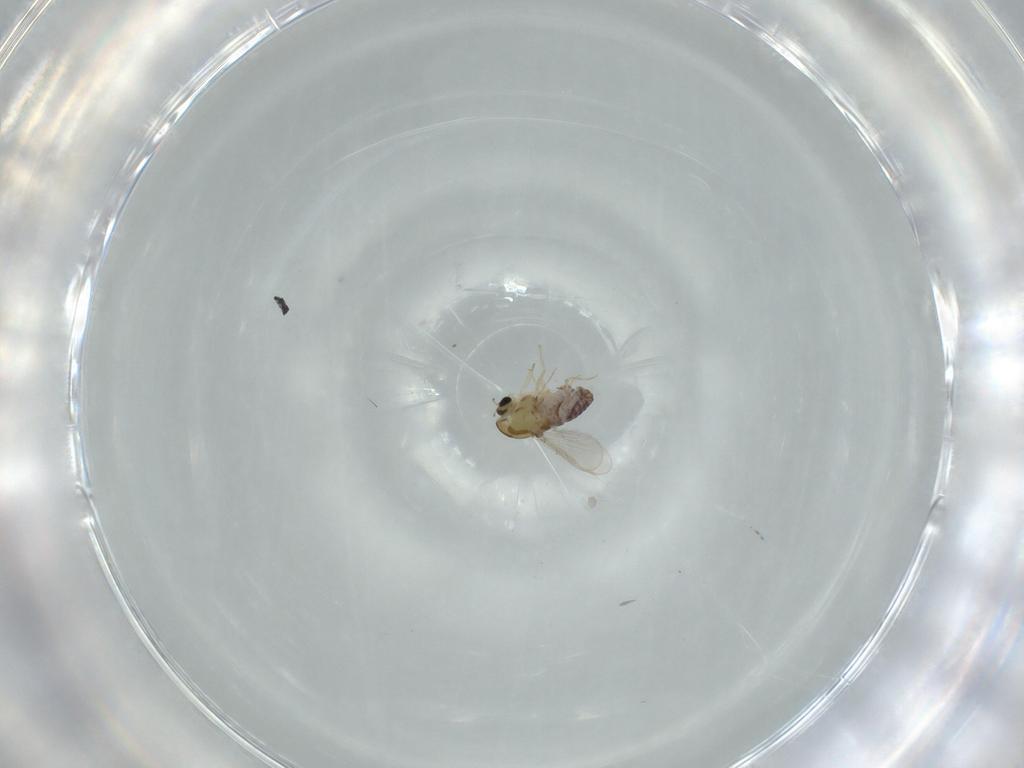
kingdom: Animalia
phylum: Arthropoda
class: Insecta
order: Diptera
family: Chironomidae
